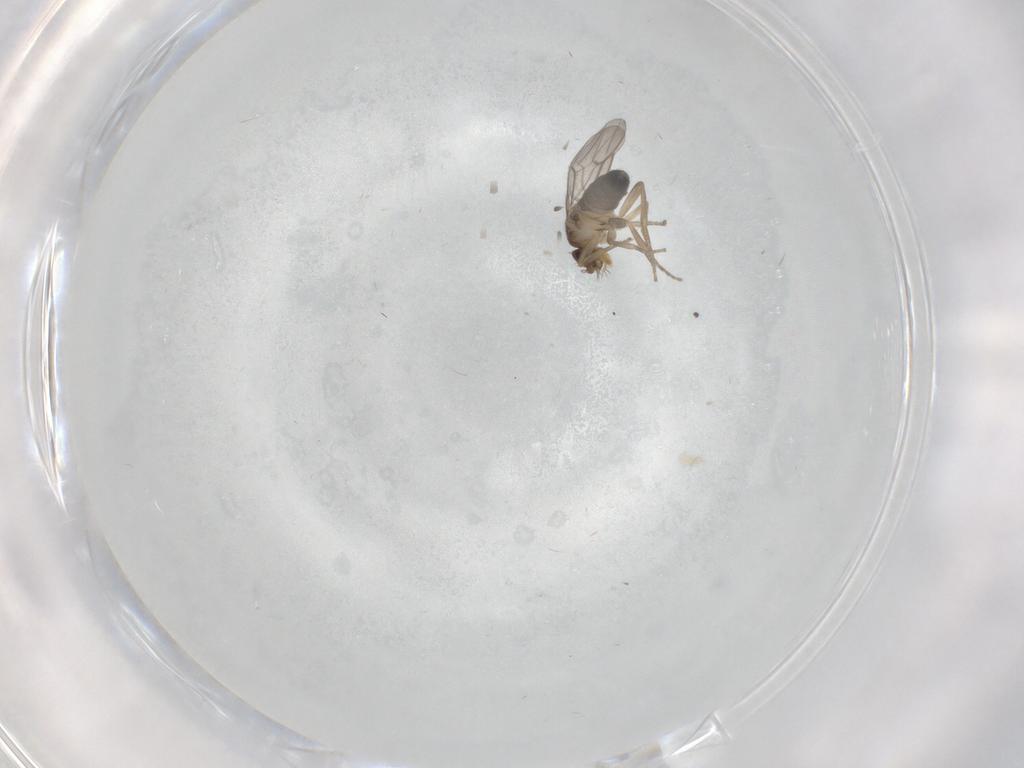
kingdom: Animalia
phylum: Arthropoda
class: Insecta
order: Diptera
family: Phoridae
